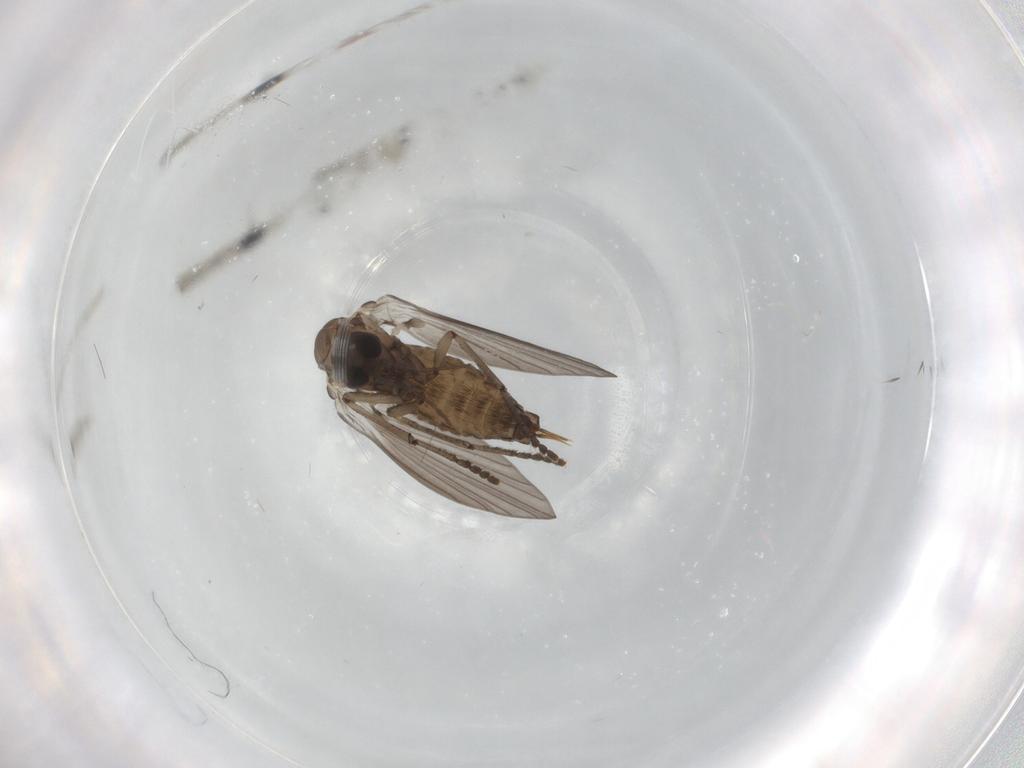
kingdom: Animalia
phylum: Arthropoda
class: Insecta
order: Diptera
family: Psychodidae
